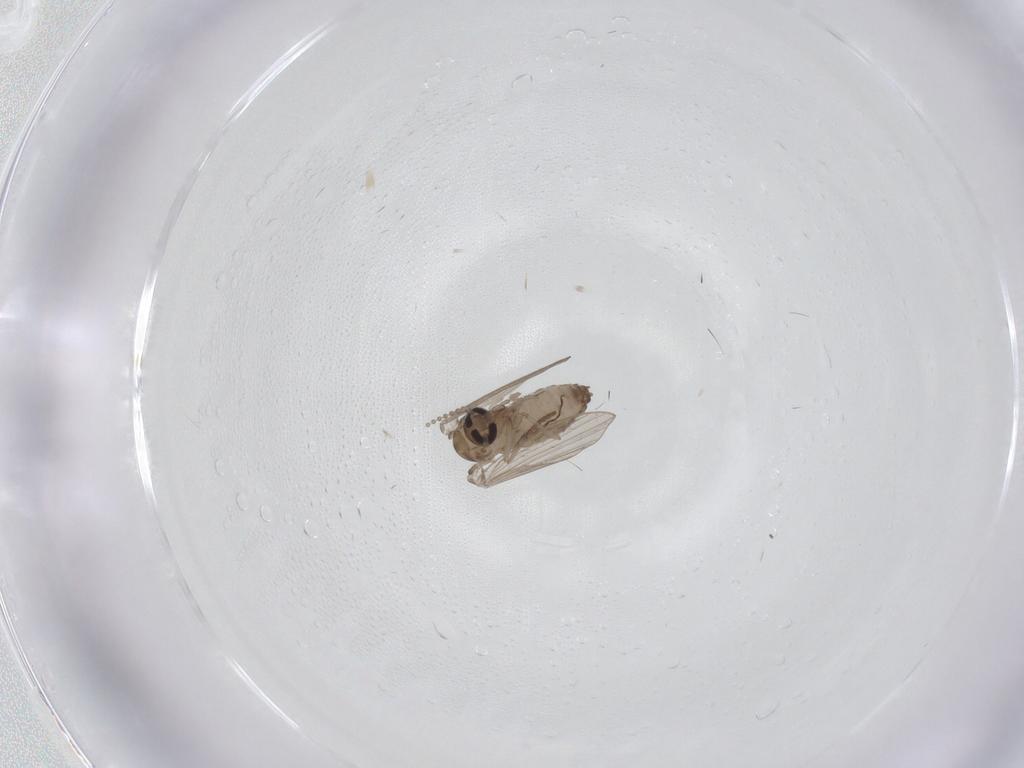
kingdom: Animalia
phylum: Arthropoda
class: Insecta
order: Diptera
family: Psychodidae
